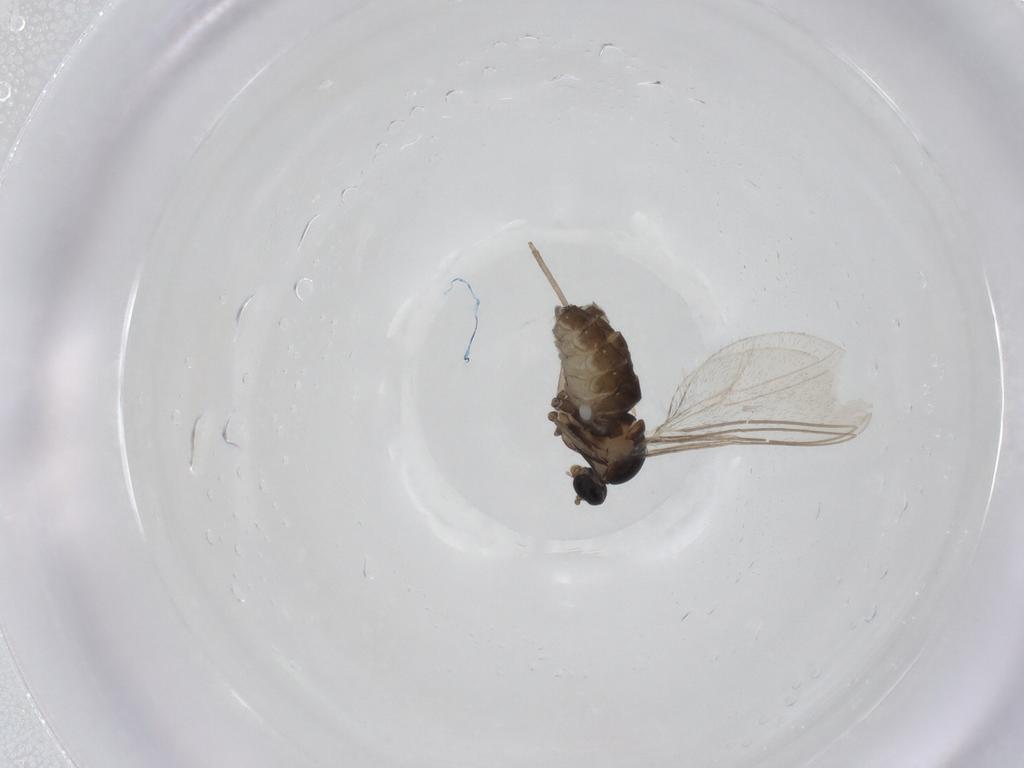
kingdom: Animalia
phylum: Arthropoda
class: Insecta
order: Diptera
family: Cecidomyiidae
